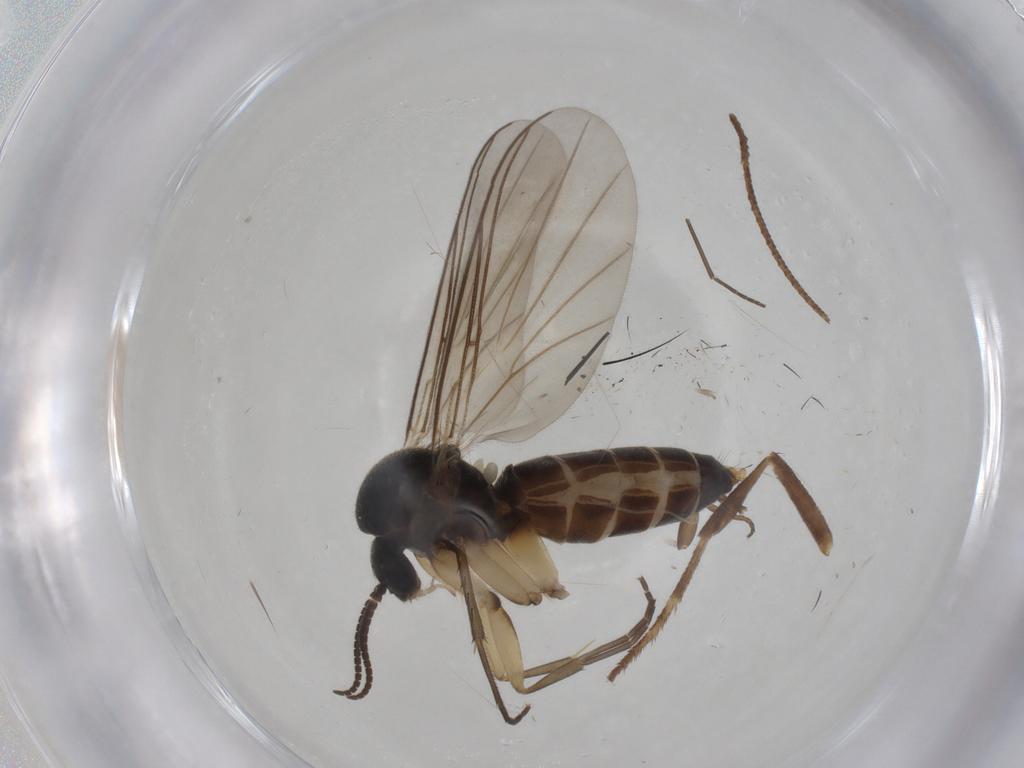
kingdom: Animalia
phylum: Arthropoda
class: Insecta
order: Diptera
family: Mycetophilidae
